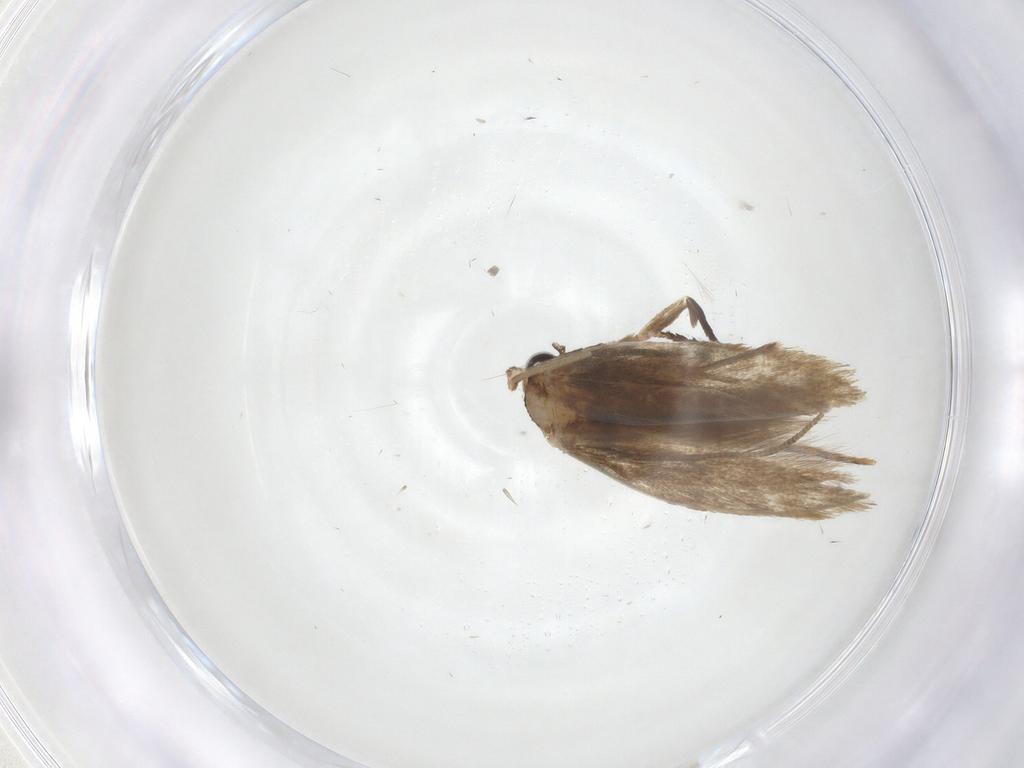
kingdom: Animalia
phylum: Arthropoda
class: Insecta
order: Lepidoptera
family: Tineidae
